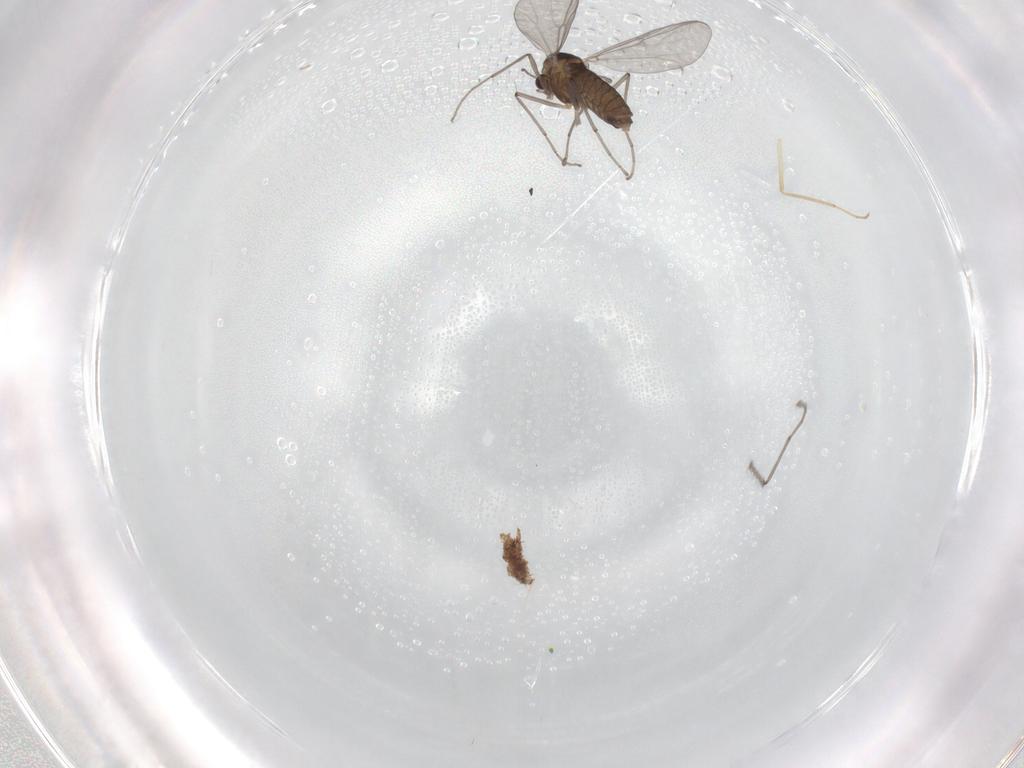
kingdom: Animalia
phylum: Arthropoda
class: Insecta
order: Diptera
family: Chironomidae
